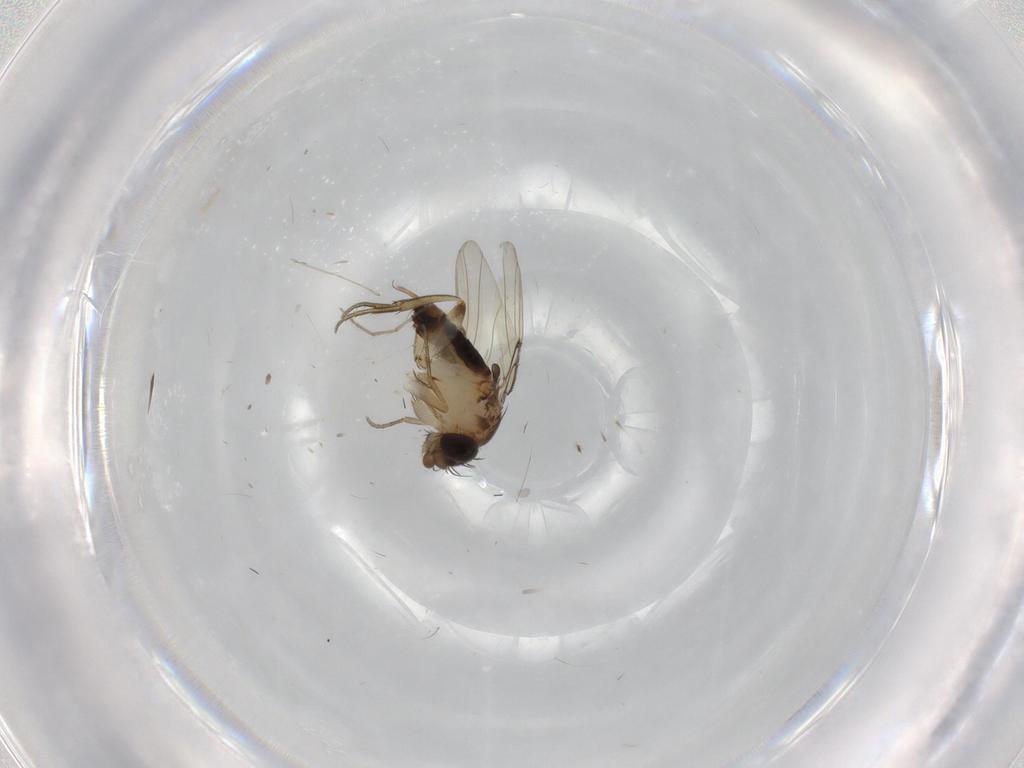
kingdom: Animalia
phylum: Arthropoda
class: Insecta
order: Diptera
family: Phoridae
